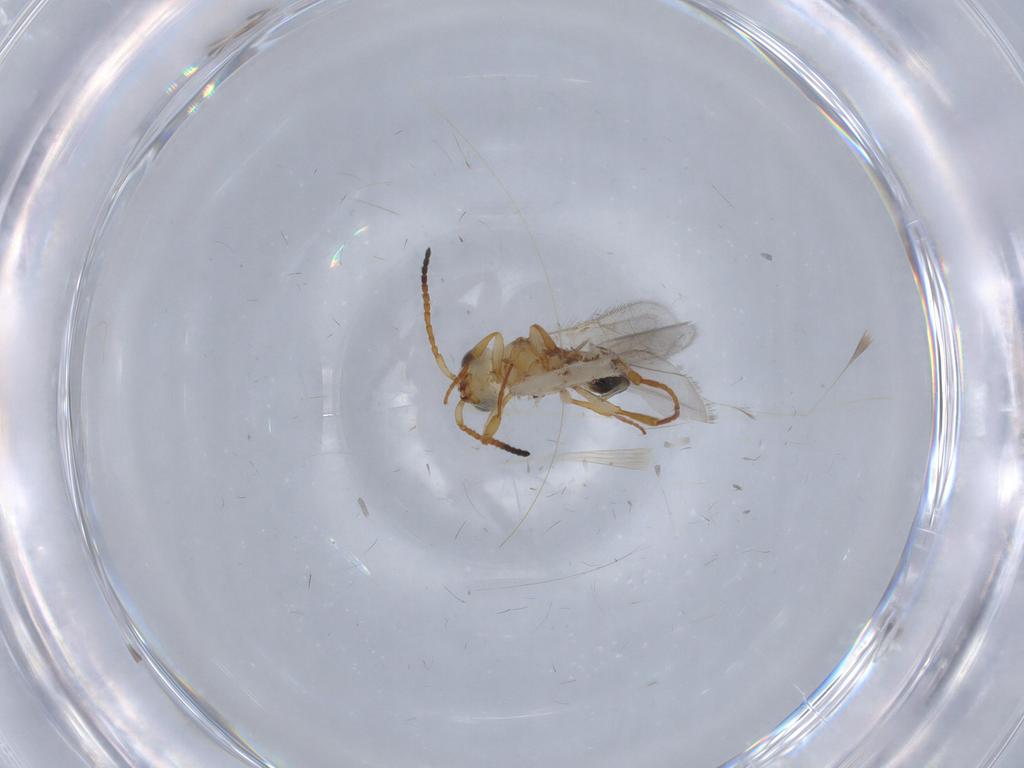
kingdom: Animalia
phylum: Arthropoda
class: Insecta
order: Hymenoptera
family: Scelionidae
